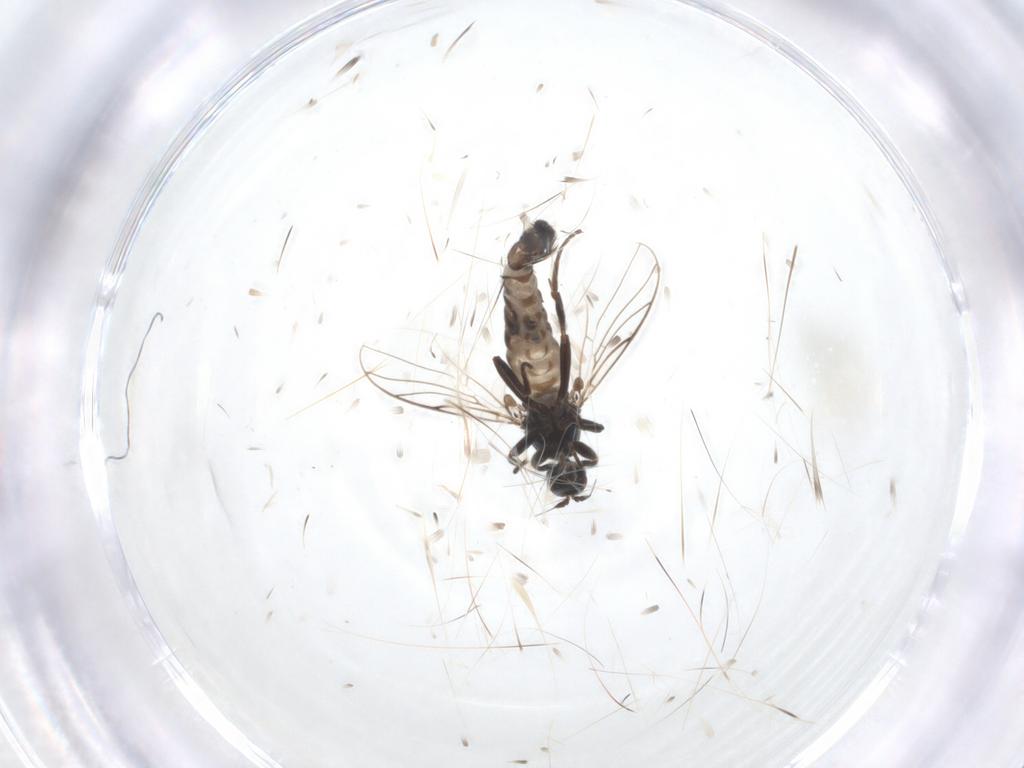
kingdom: Animalia
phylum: Arthropoda
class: Insecta
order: Diptera
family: Hybotidae
